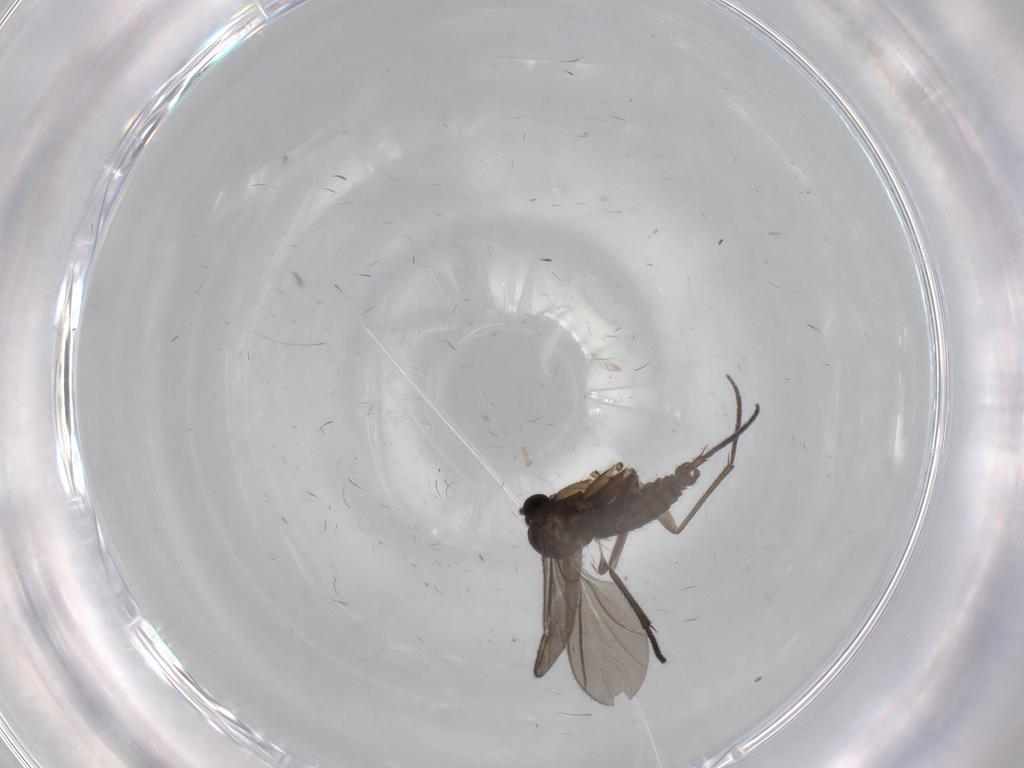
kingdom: Animalia
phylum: Arthropoda
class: Insecta
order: Diptera
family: Sciaridae
